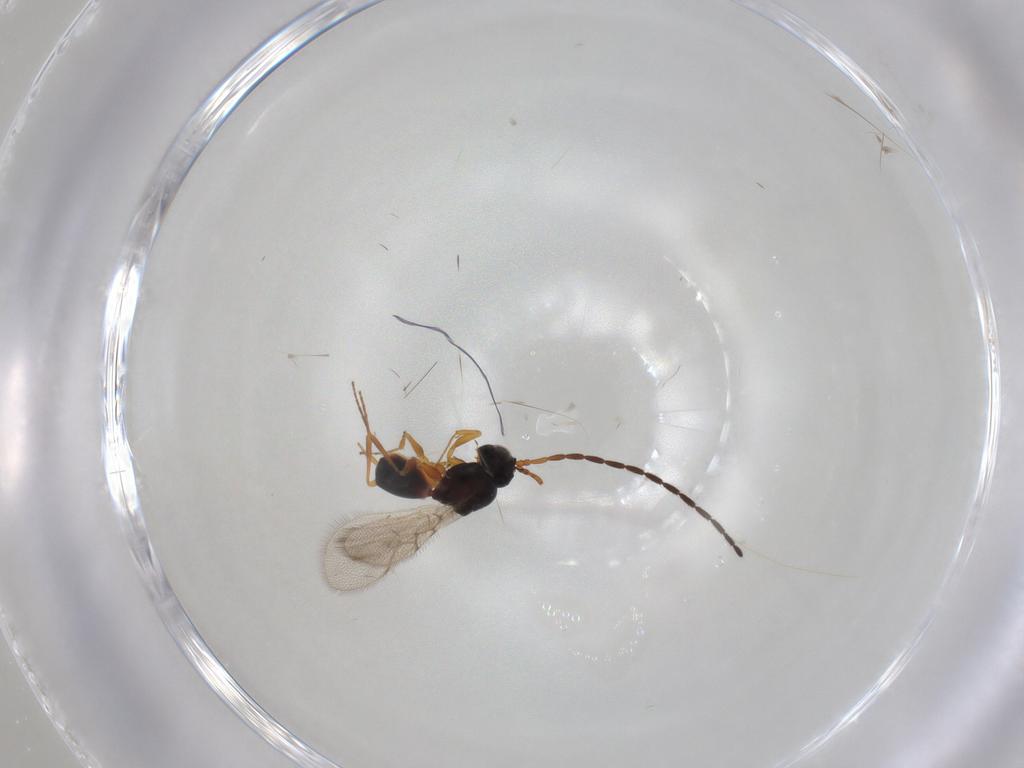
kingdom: Animalia
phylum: Arthropoda
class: Insecta
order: Hymenoptera
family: Figitidae
